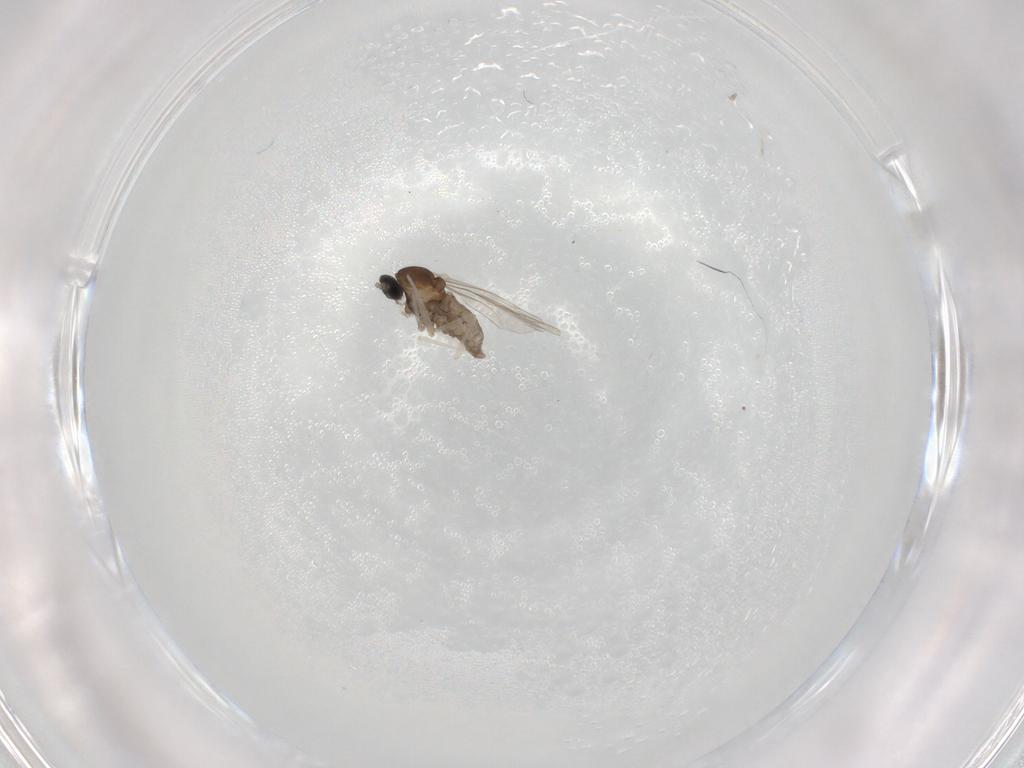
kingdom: Animalia
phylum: Arthropoda
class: Insecta
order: Diptera
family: Cecidomyiidae
